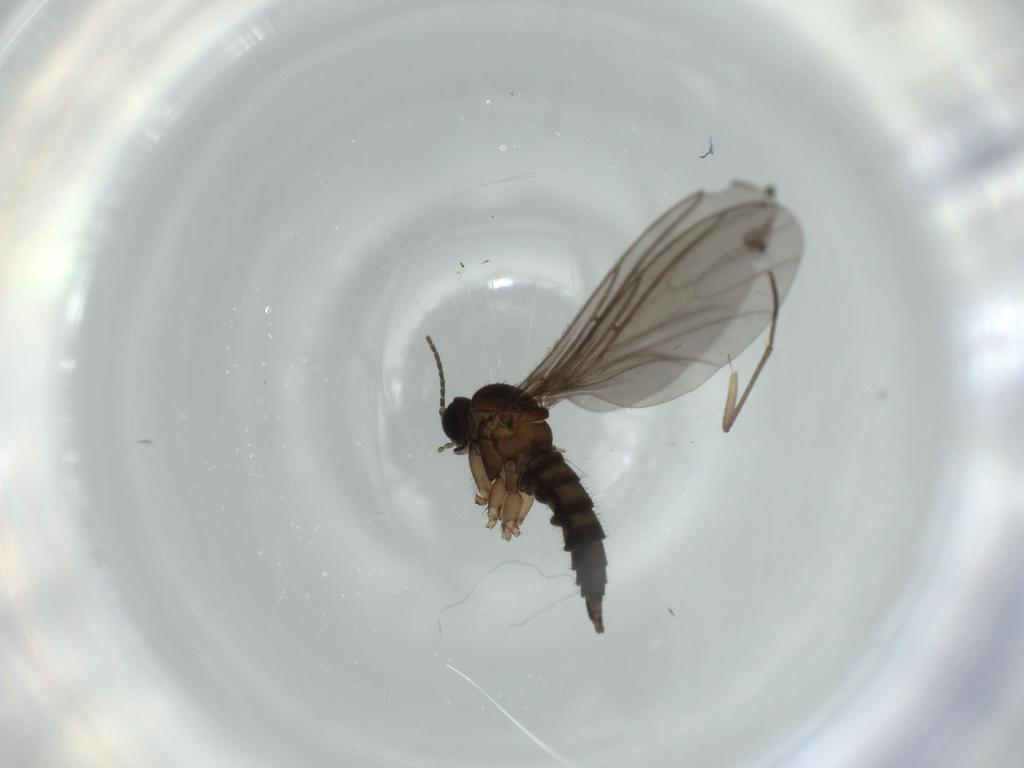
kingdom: Animalia
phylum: Arthropoda
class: Insecta
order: Diptera
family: Sciaridae
